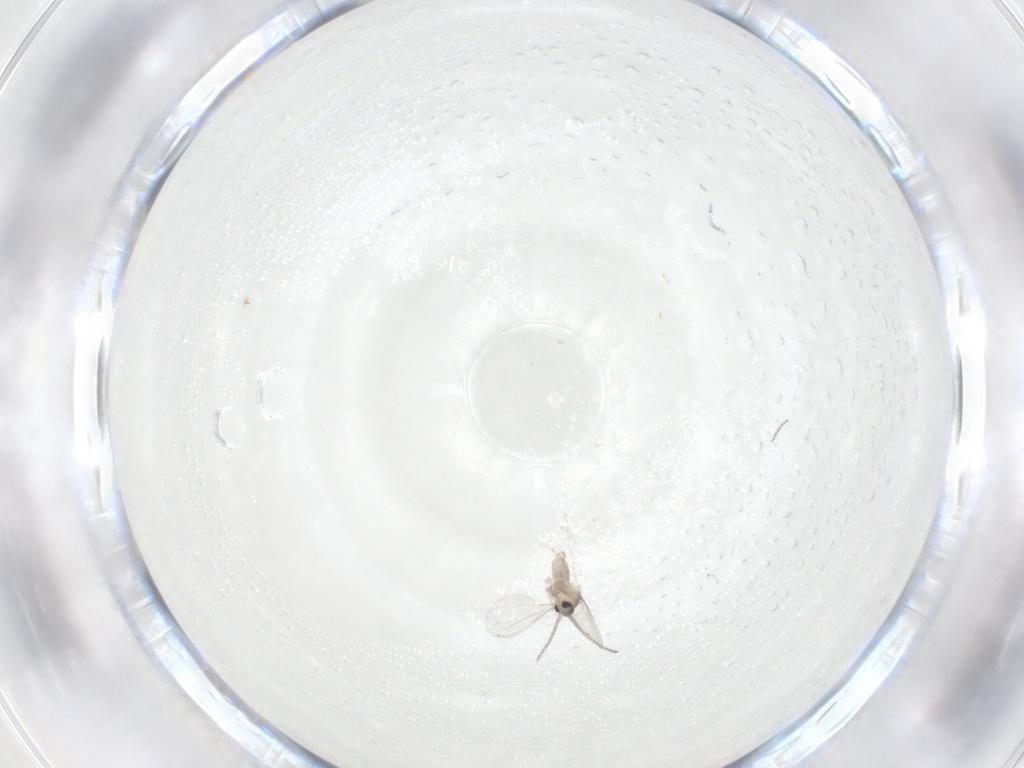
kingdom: Animalia
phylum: Arthropoda
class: Insecta
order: Diptera
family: Cecidomyiidae
